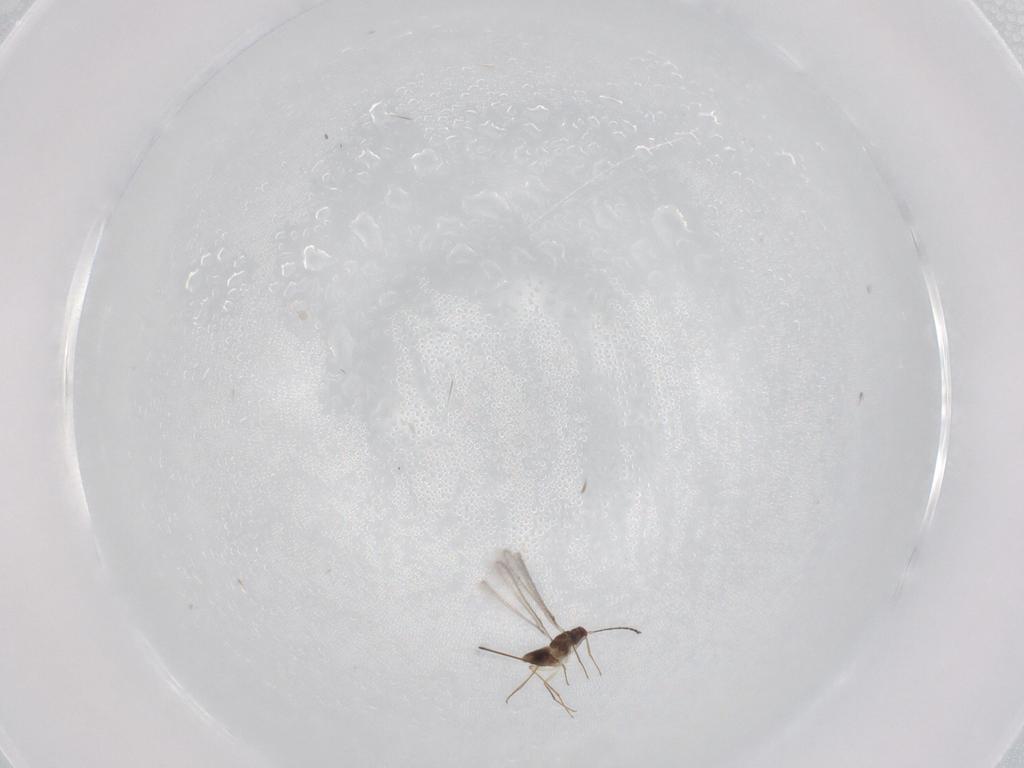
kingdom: Animalia
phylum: Arthropoda
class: Insecta
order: Hymenoptera
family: Mymaridae
